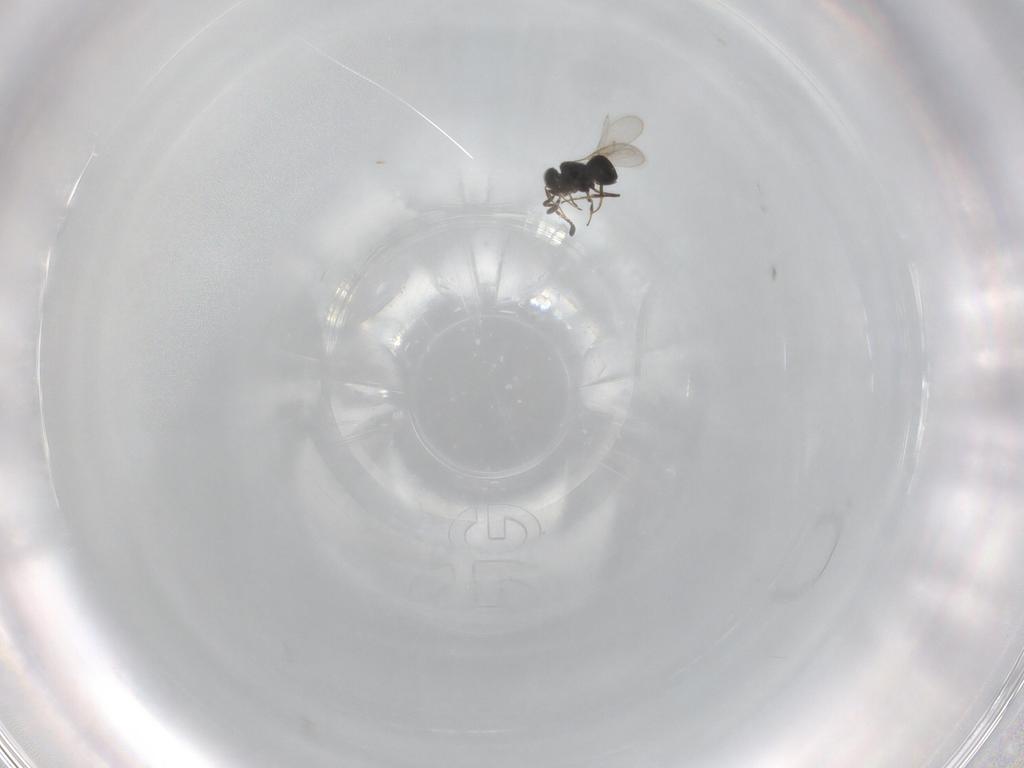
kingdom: Animalia
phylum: Arthropoda
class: Insecta
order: Hymenoptera
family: Scelionidae
